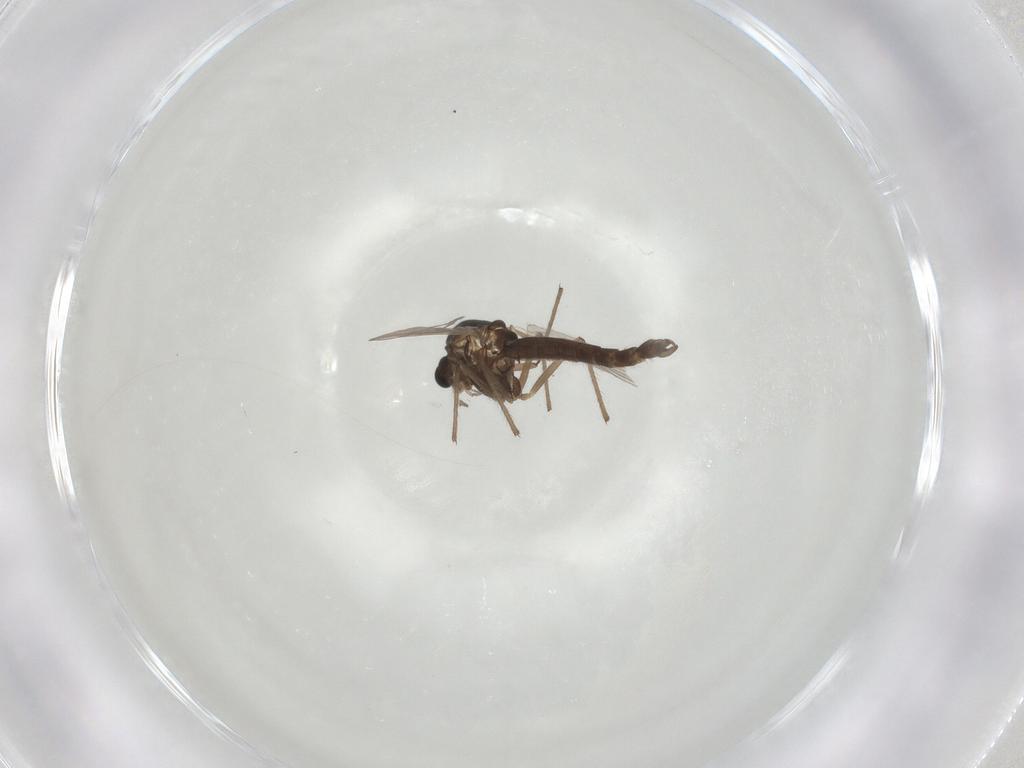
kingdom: Animalia
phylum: Arthropoda
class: Insecta
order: Diptera
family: Chironomidae
